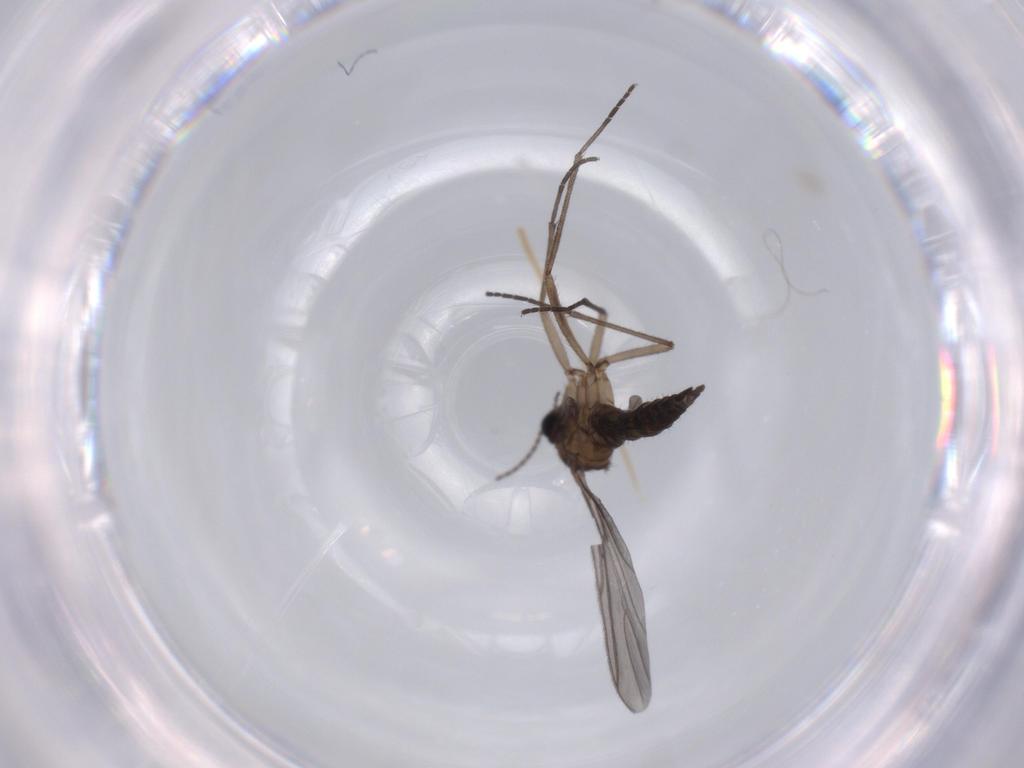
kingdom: Animalia
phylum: Arthropoda
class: Insecta
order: Diptera
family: Sciaridae
